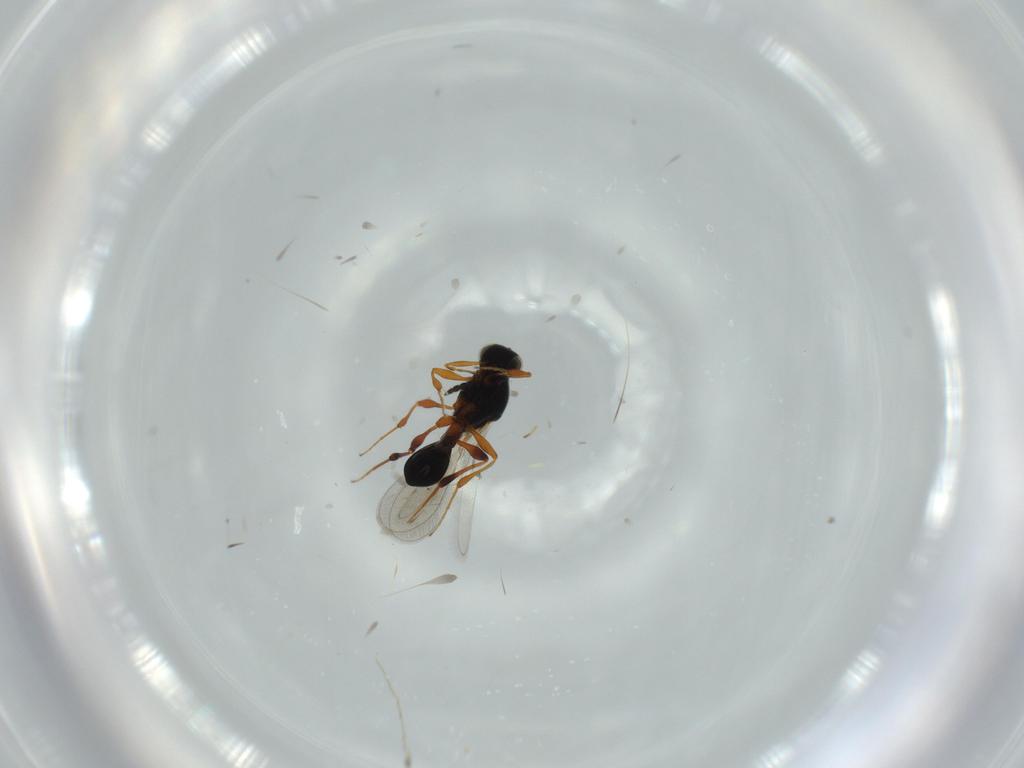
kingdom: Animalia
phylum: Arthropoda
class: Insecta
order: Hymenoptera
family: Platygastridae
